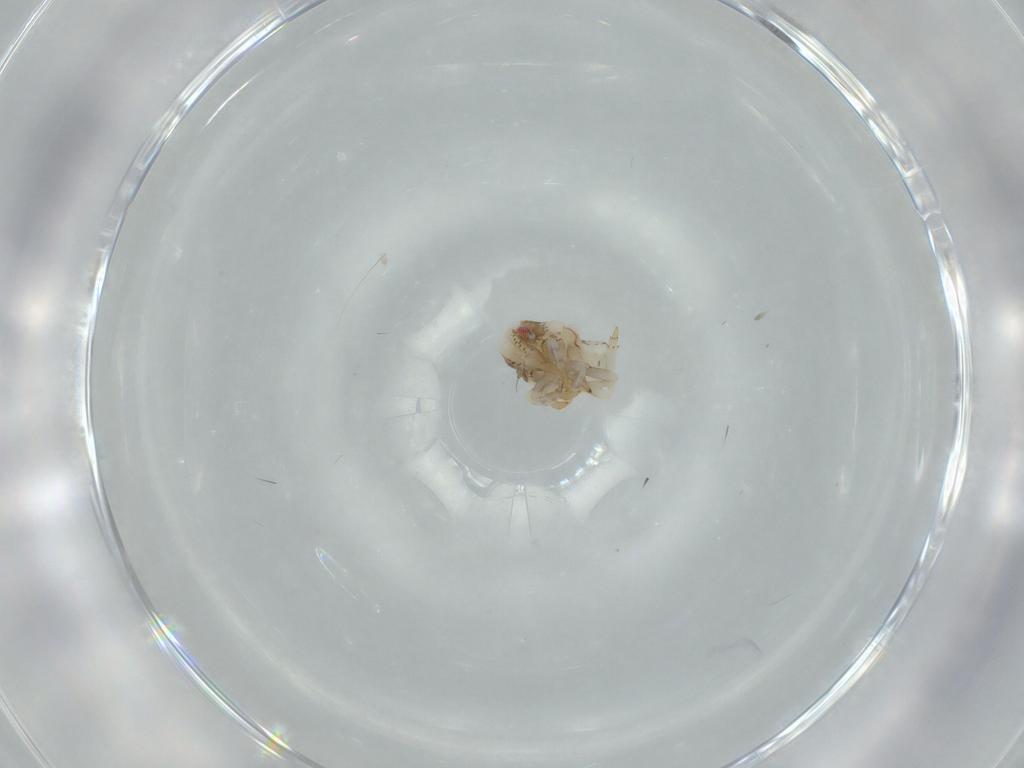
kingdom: Animalia
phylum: Arthropoda
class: Insecta
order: Hemiptera
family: Acanaloniidae
